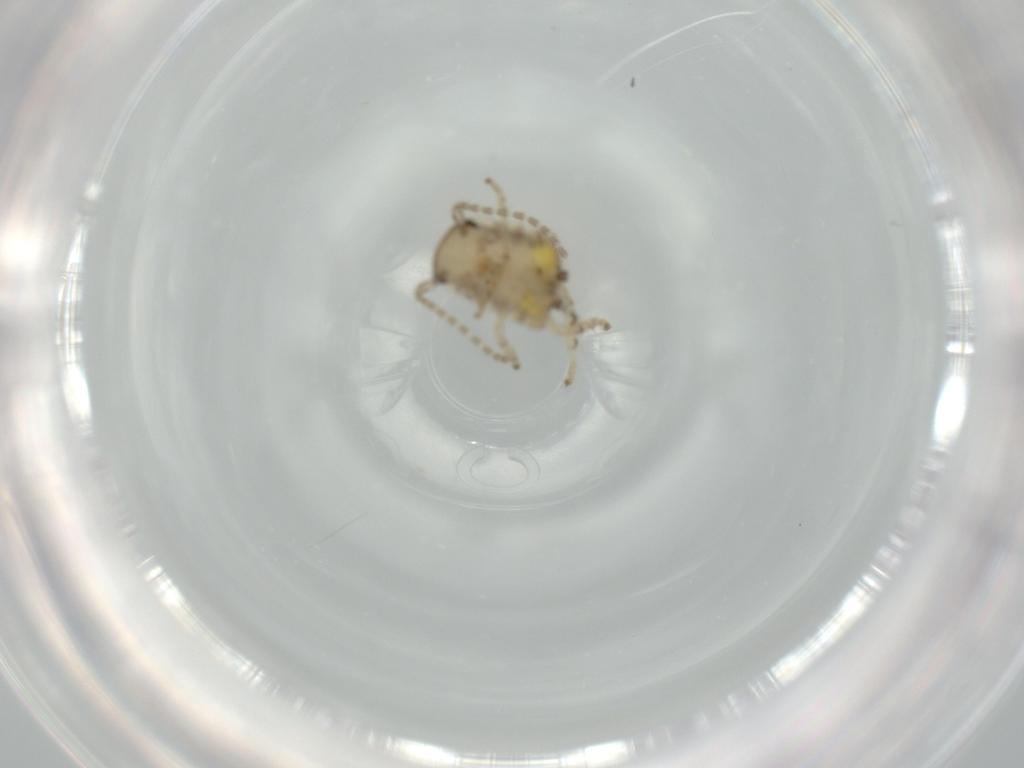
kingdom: Animalia
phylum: Arthropoda
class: Insecta
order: Blattodea
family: Ectobiidae
